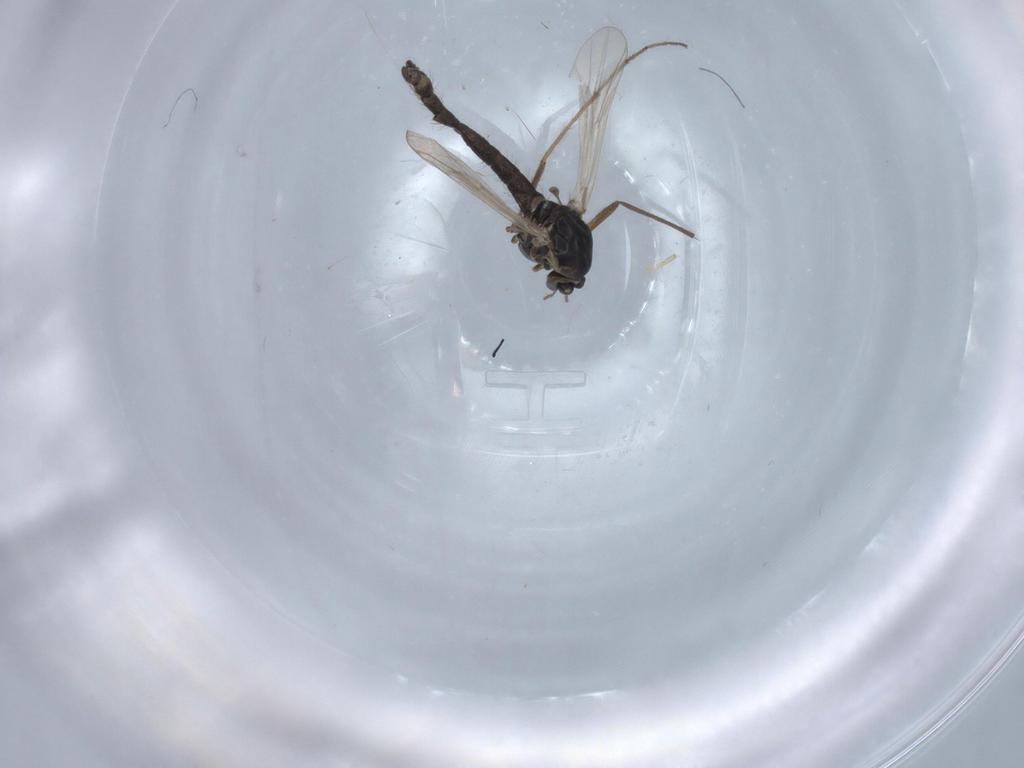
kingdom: Animalia
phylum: Arthropoda
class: Insecta
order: Diptera
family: Chironomidae
